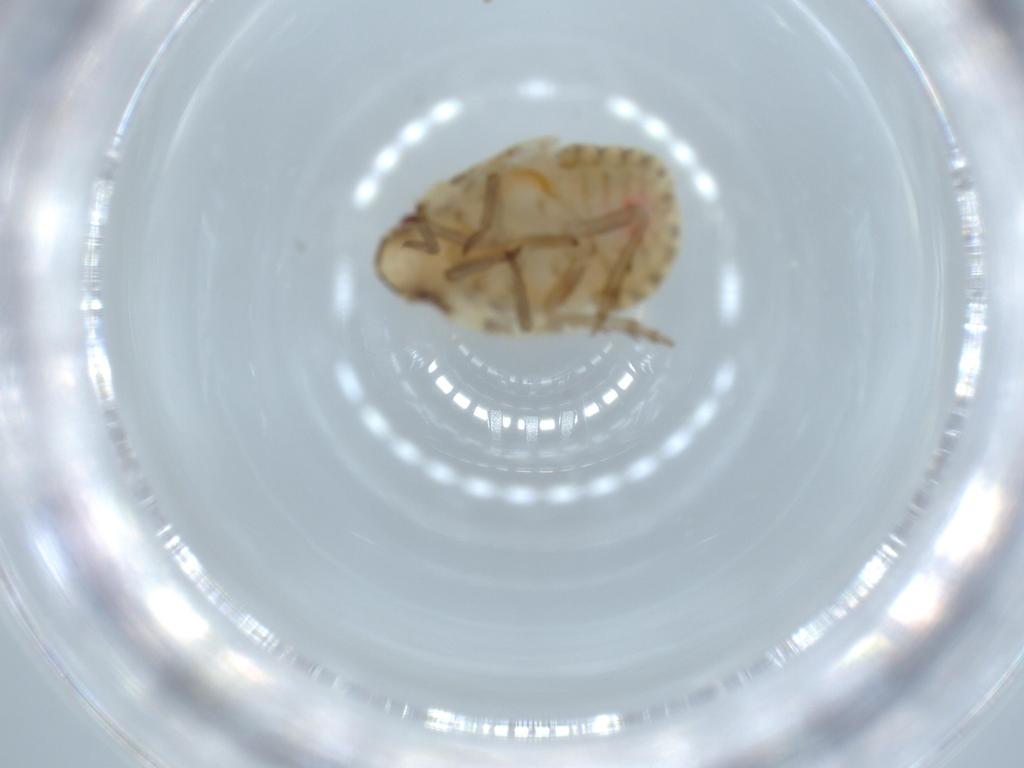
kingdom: Animalia
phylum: Arthropoda
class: Insecta
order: Hemiptera
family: Flatidae
